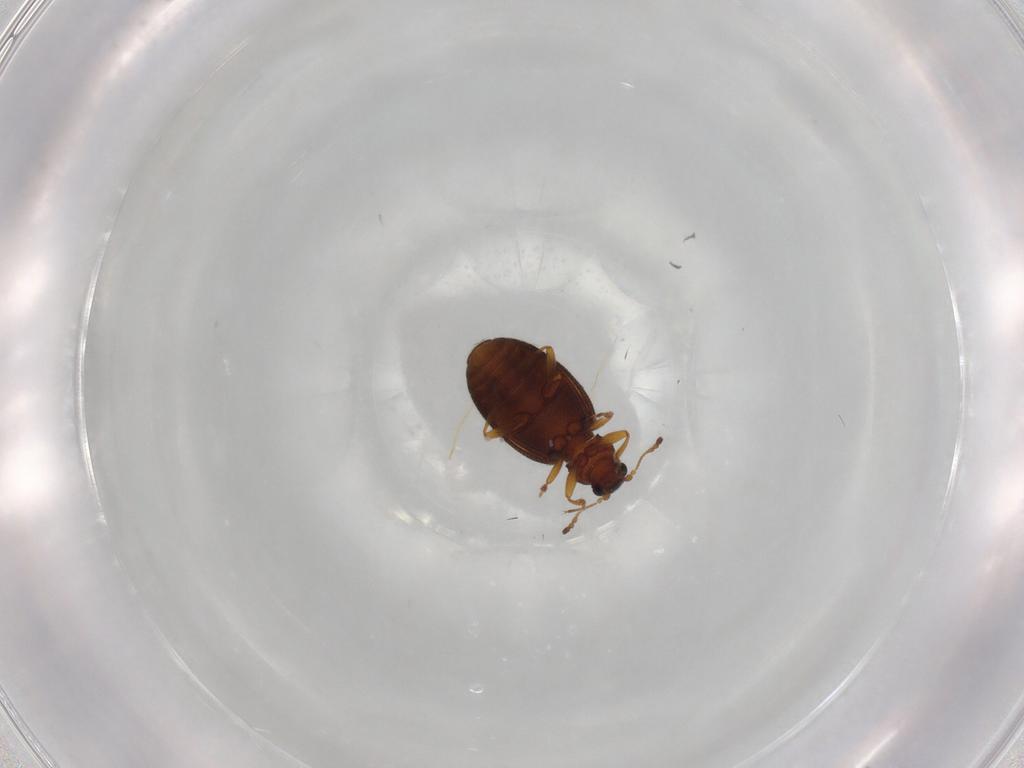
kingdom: Animalia
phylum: Arthropoda
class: Insecta
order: Coleoptera
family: Latridiidae
